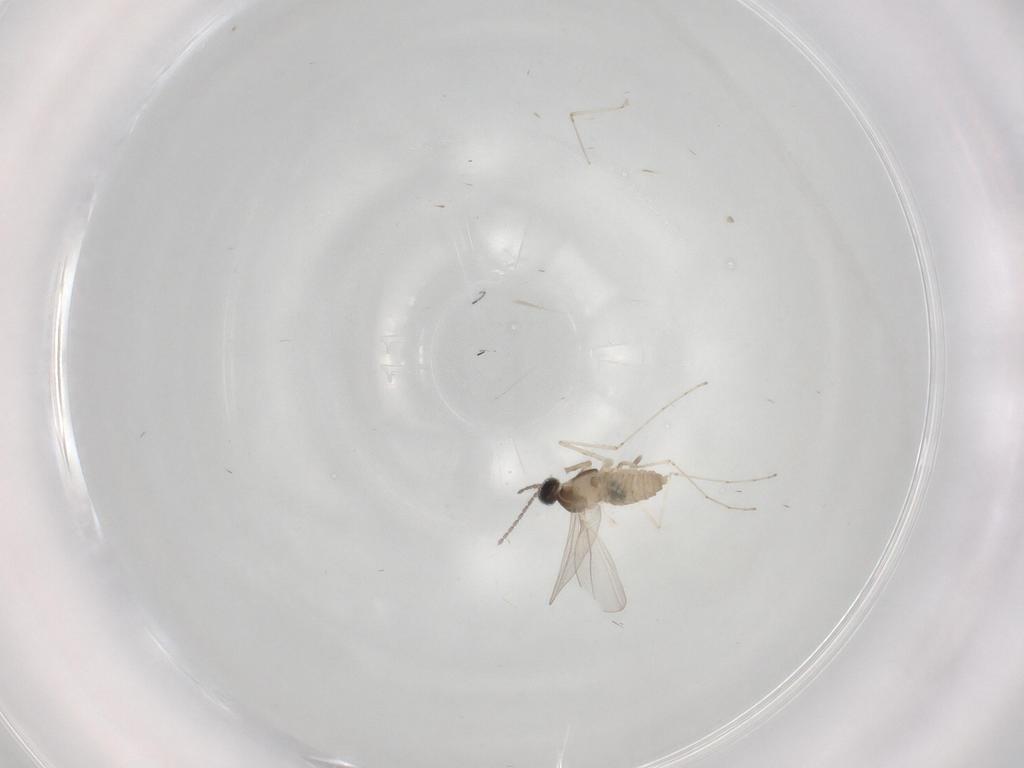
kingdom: Animalia
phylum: Arthropoda
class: Insecta
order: Diptera
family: Cecidomyiidae
